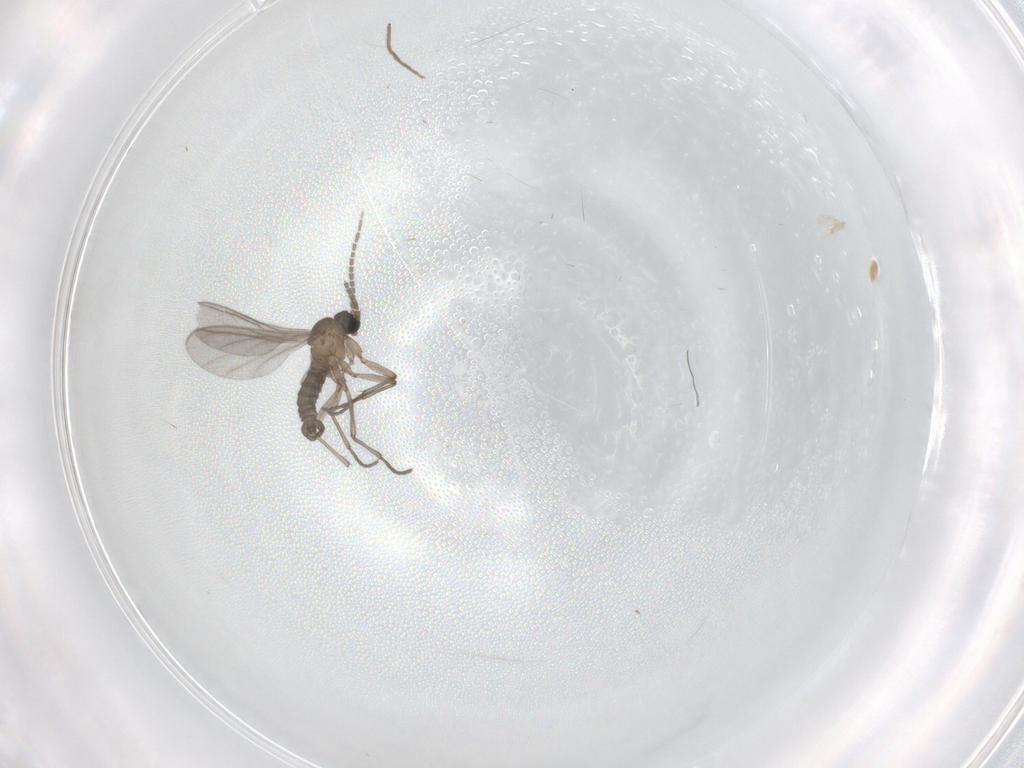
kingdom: Animalia
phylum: Arthropoda
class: Insecta
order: Diptera
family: Sciaridae
